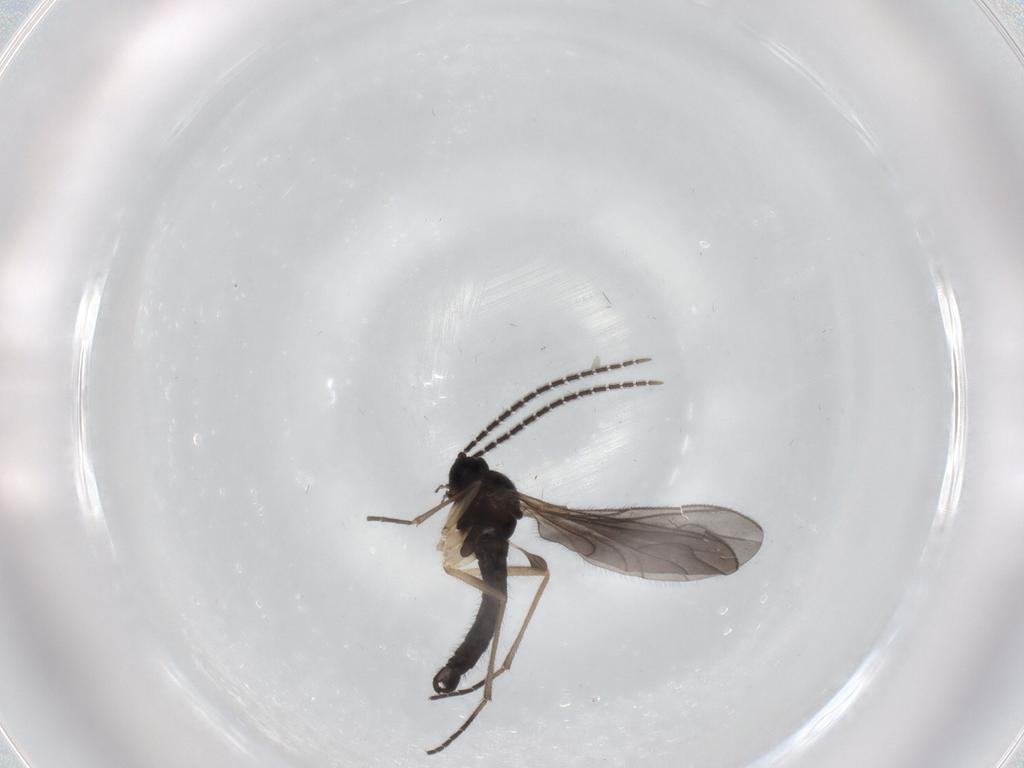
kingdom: Animalia
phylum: Arthropoda
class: Insecta
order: Diptera
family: Sciaridae
